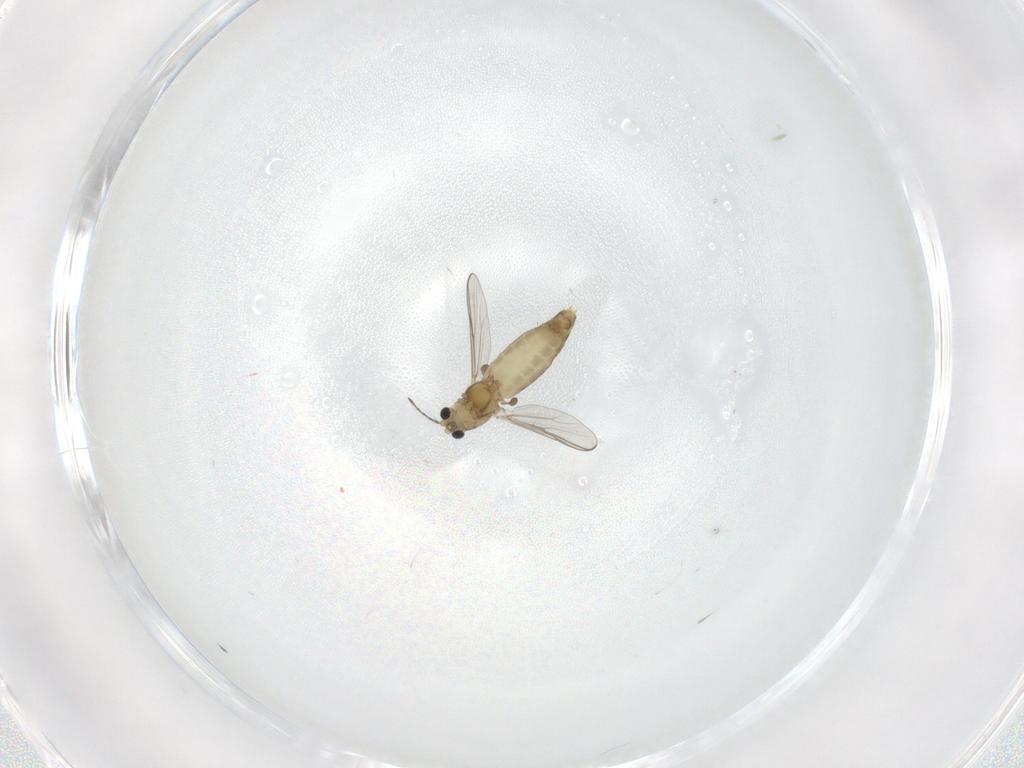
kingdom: Animalia
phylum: Arthropoda
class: Insecta
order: Diptera
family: Chironomidae
